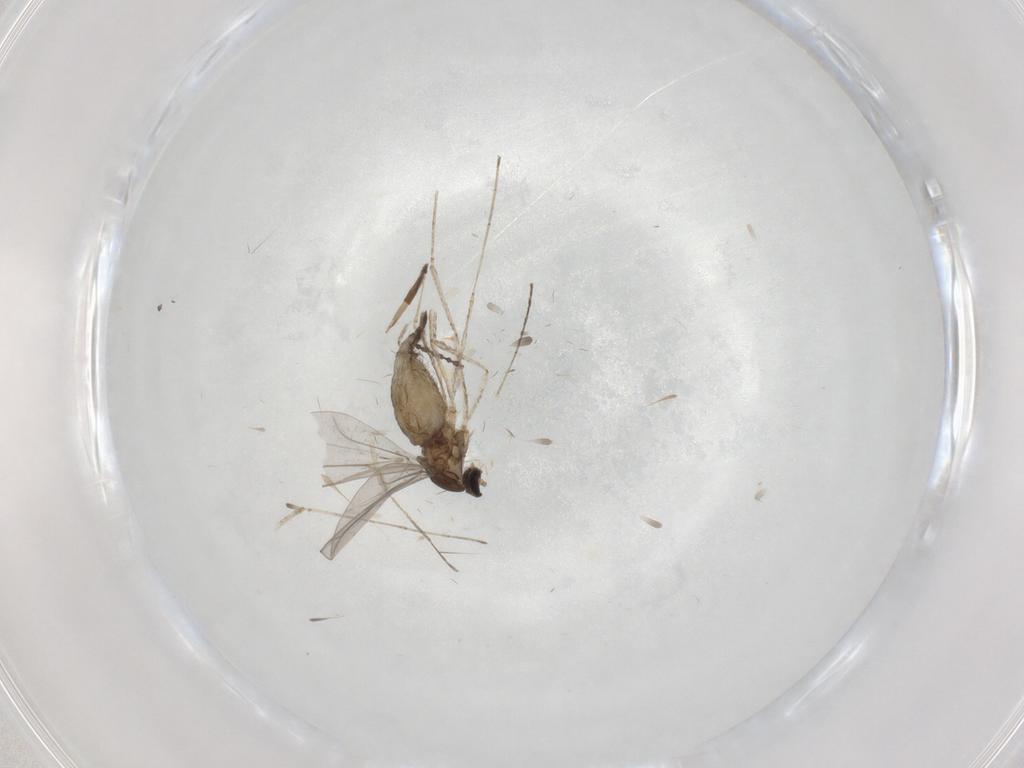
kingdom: Animalia
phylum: Arthropoda
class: Insecta
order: Diptera
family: Cecidomyiidae
